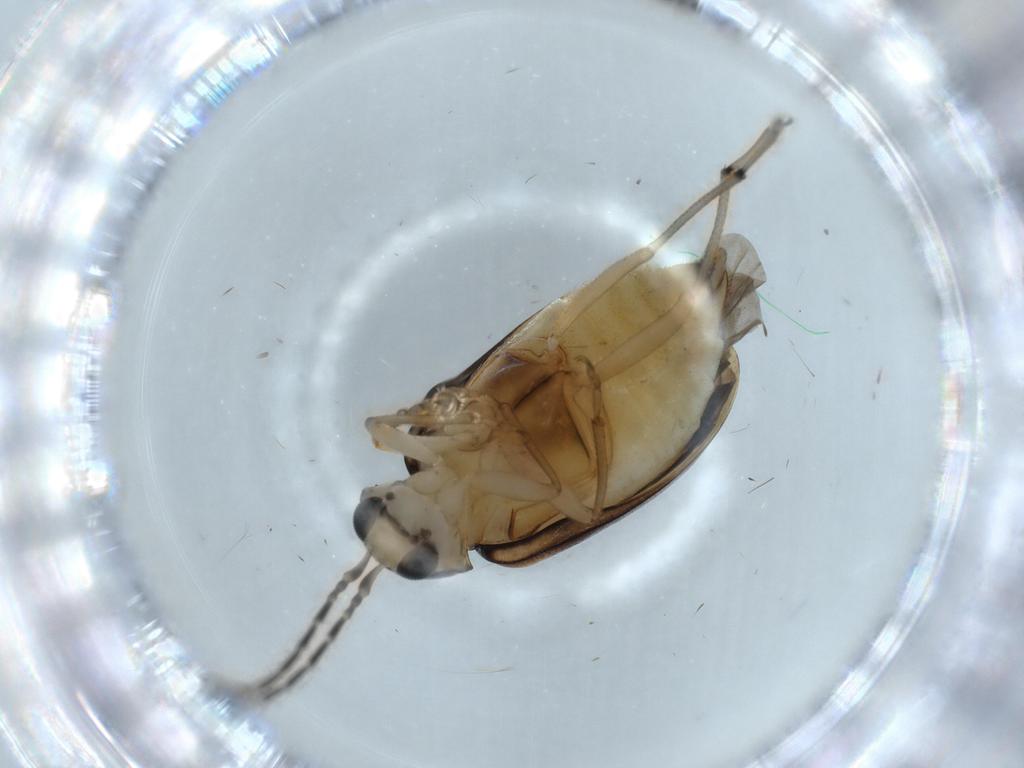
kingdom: Animalia
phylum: Arthropoda
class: Insecta
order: Coleoptera
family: Chrysomelidae
